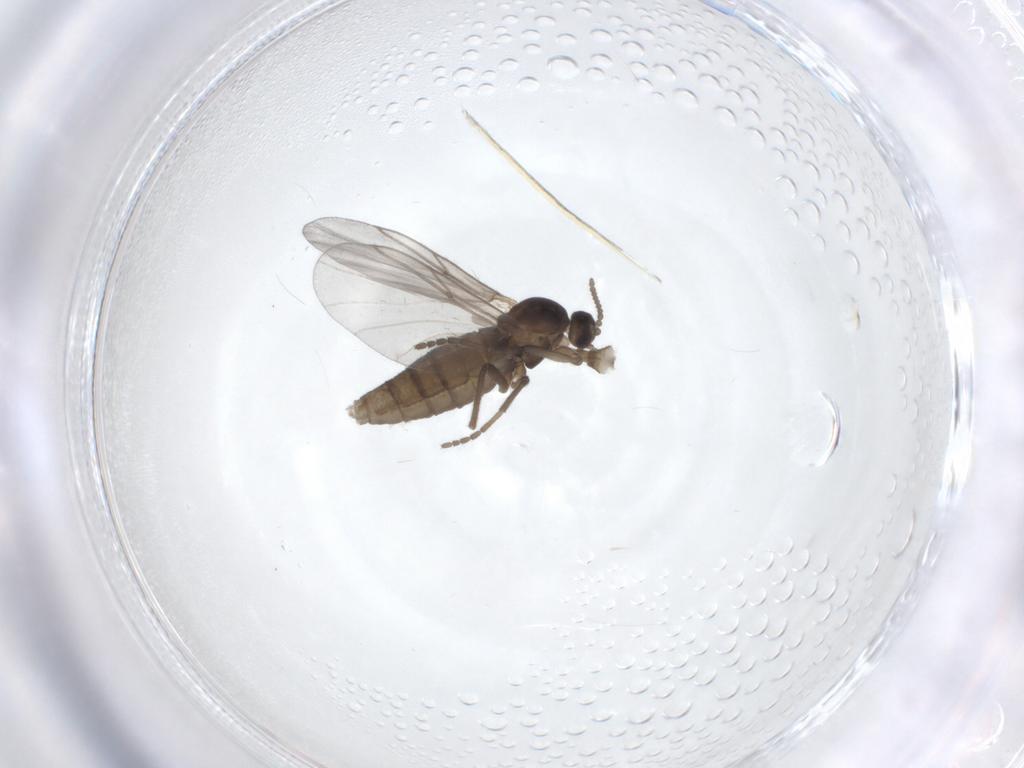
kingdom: Animalia
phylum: Arthropoda
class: Insecta
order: Diptera
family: Cecidomyiidae
